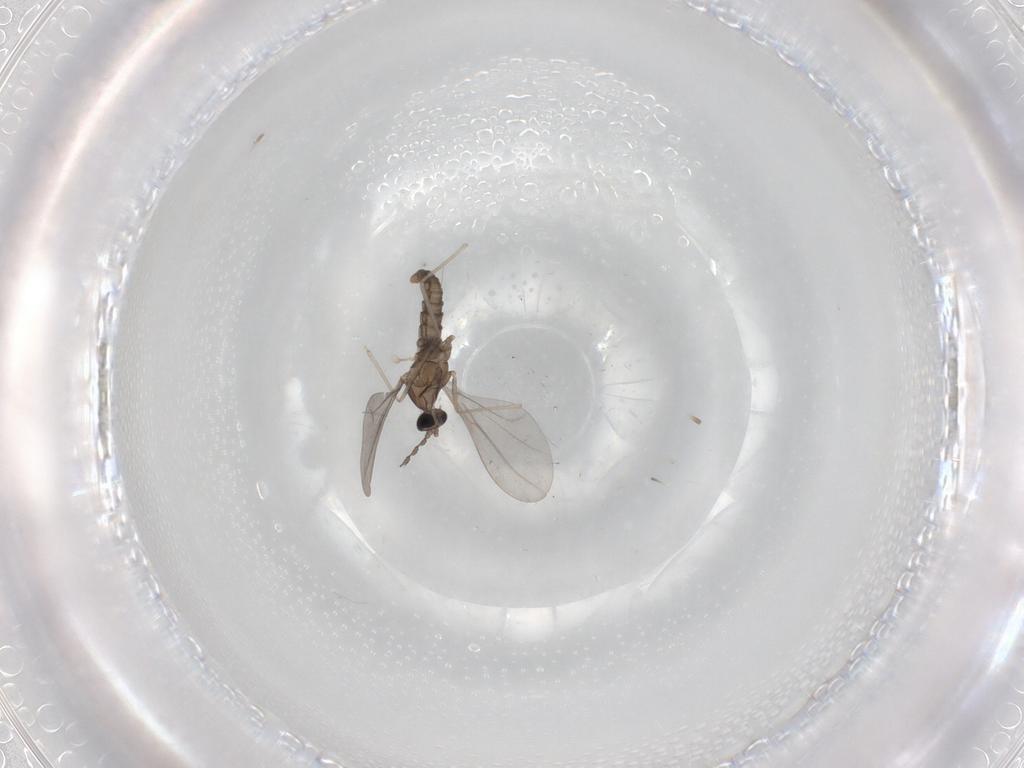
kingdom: Animalia
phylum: Arthropoda
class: Insecta
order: Diptera
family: Cecidomyiidae
